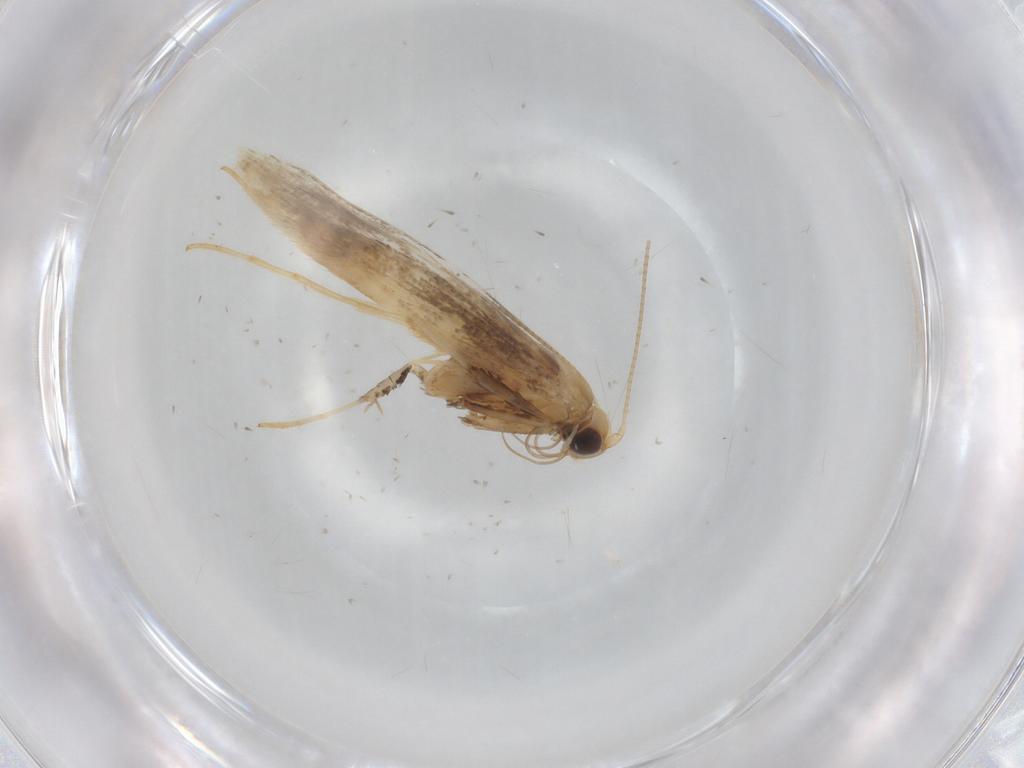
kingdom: Animalia
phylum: Arthropoda
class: Insecta
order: Lepidoptera
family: Gracillariidae
